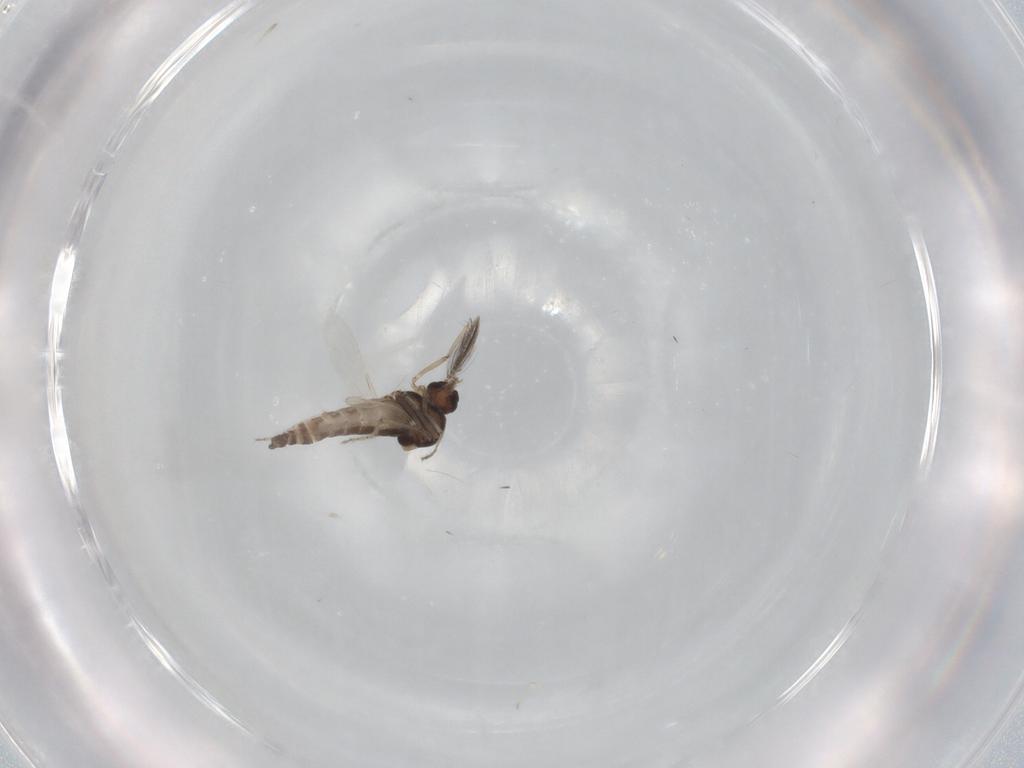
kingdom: Animalia
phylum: Arthropoda
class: Insecta
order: Diptera
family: Ceratopogonidae
